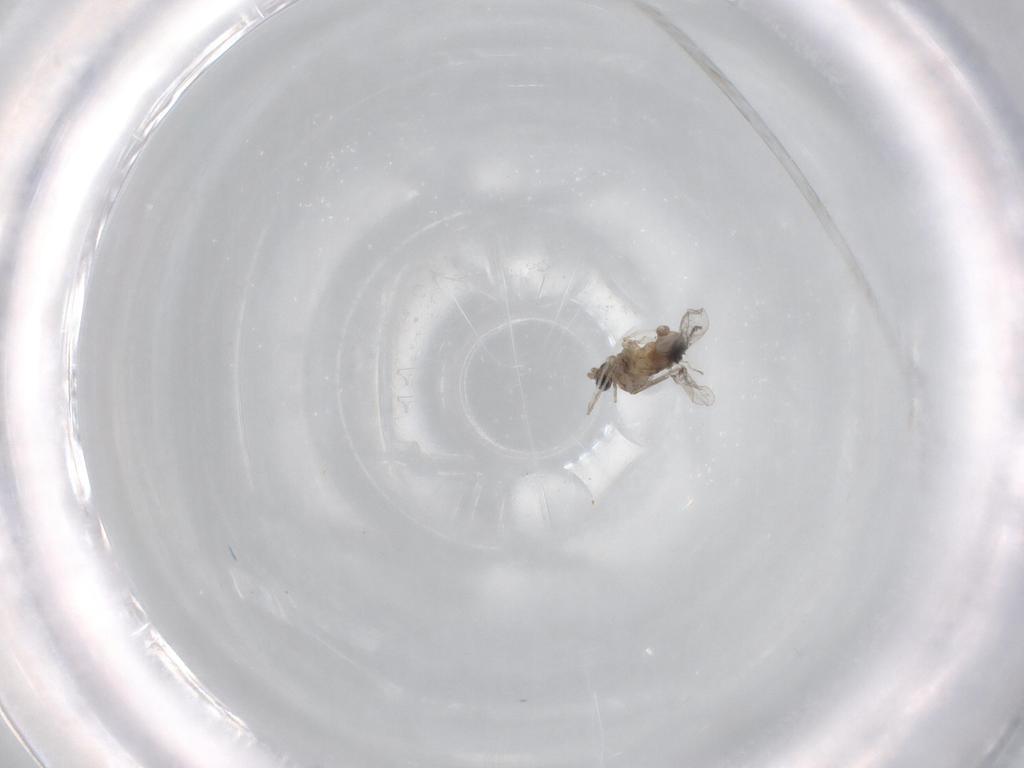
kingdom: Animalia
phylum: Arthropoda
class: Insecta
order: Diptera
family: Cecidomyiidae
